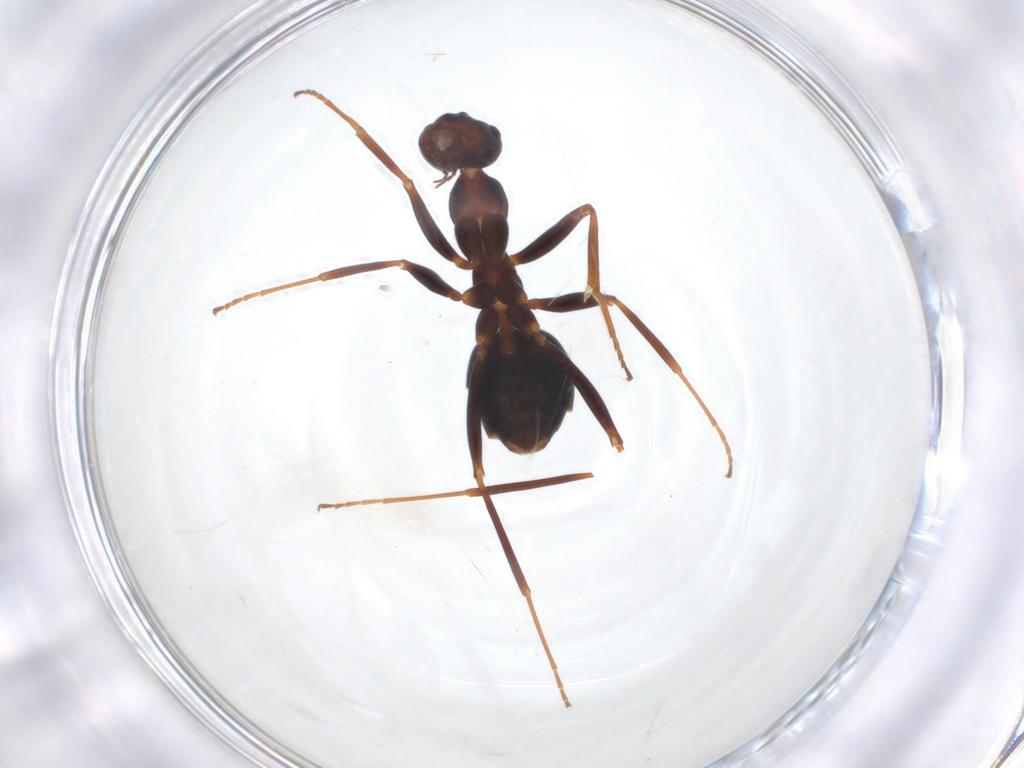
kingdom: Animalia
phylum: Arthropoda
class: Insecta
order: Hymenoptera
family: Formicidae
